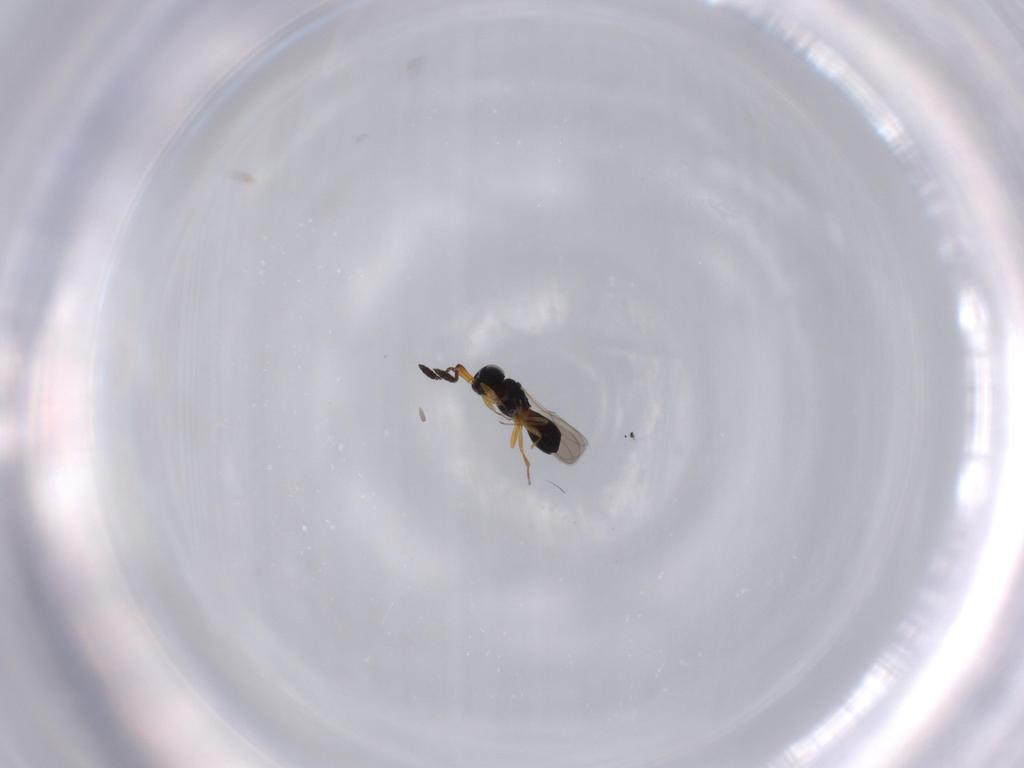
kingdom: Animalia
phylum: Arthropoda
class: Insecta
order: Hymenoptera
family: Scelionidae
